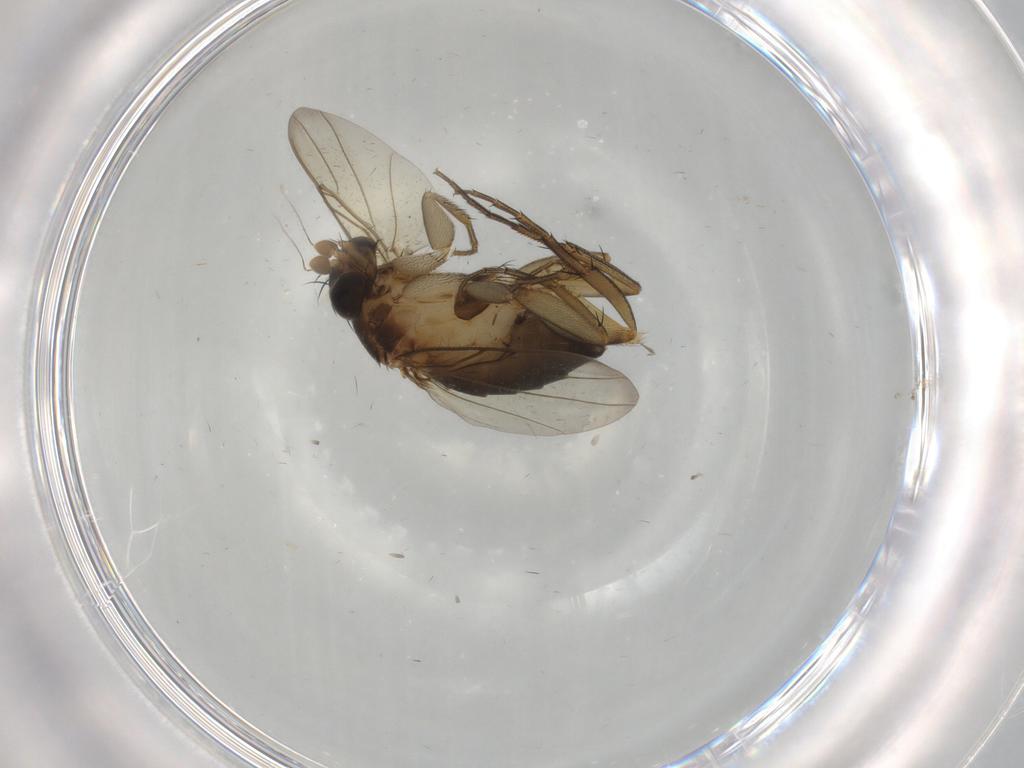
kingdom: Animalia
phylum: Arthropoda
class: Insecta
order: Diptera
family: Phoridae
